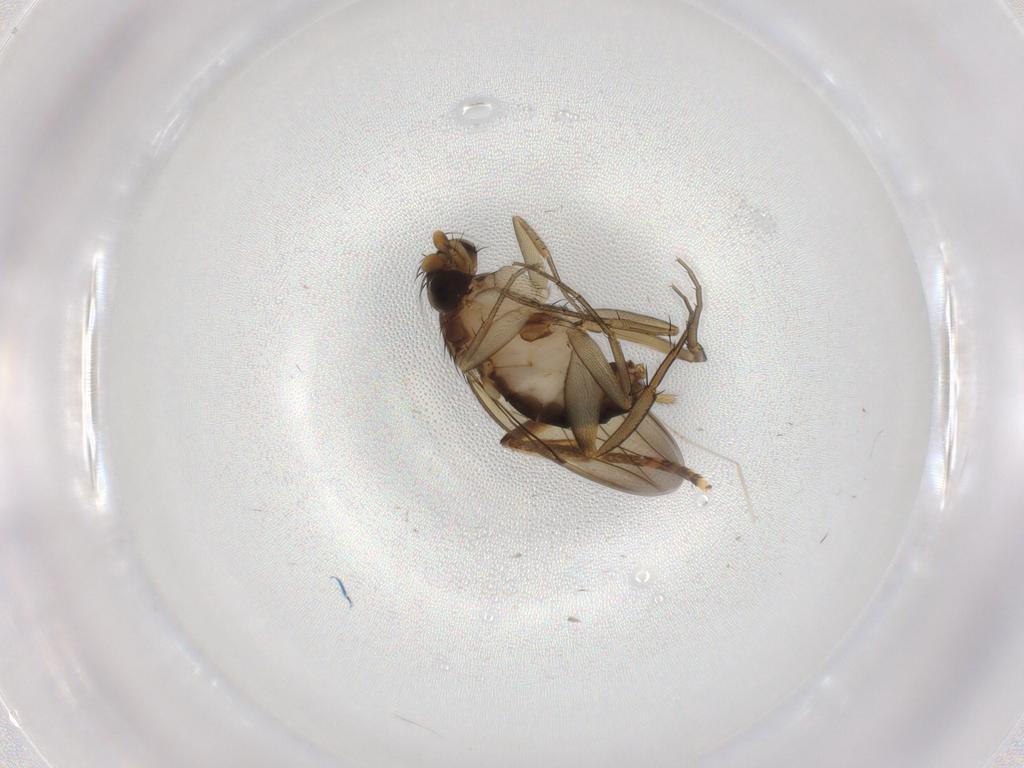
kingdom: Animalia
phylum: Arthropoda
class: Insecta
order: Diptera
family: Phoridae
